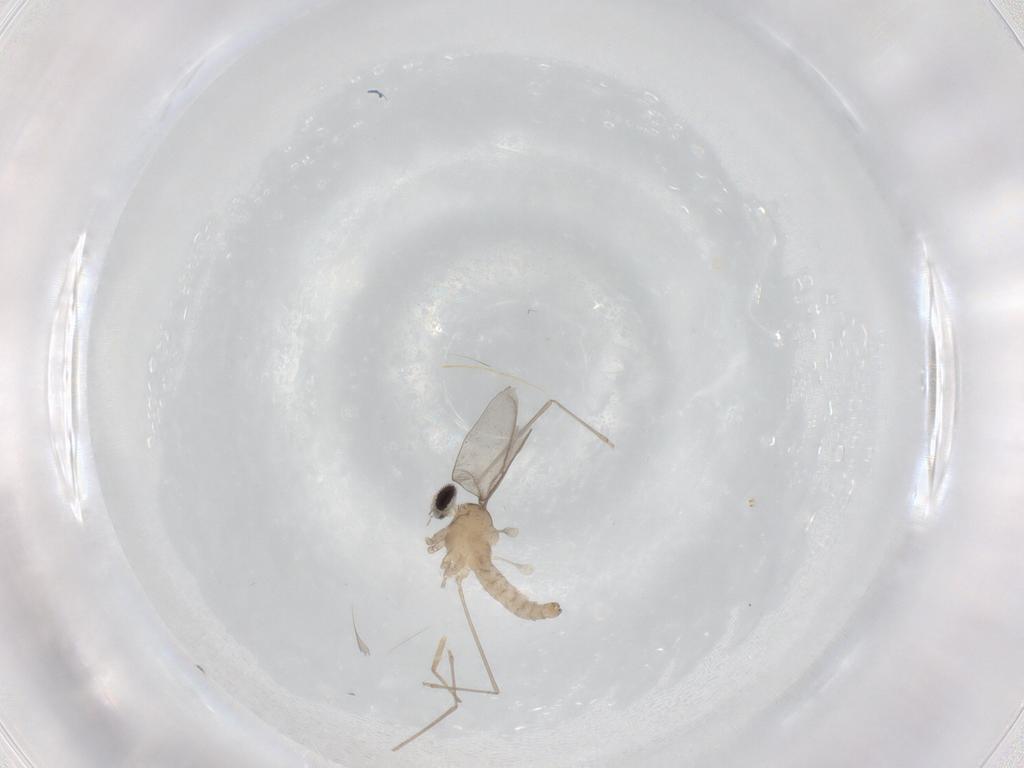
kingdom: Animalia
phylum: Arthropoda
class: Insecta
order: Diptera
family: Cecidomyiidae
